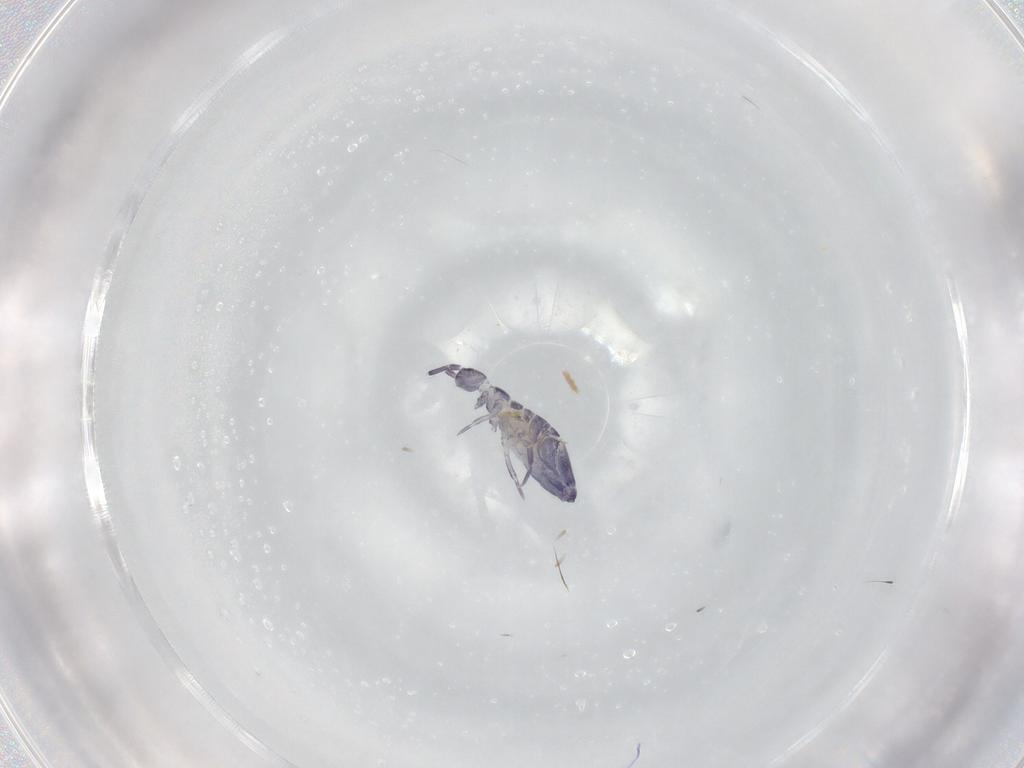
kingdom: Animalia
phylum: Arthropoda
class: Collembola
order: Entomobryomorpha
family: Entomobryidae
